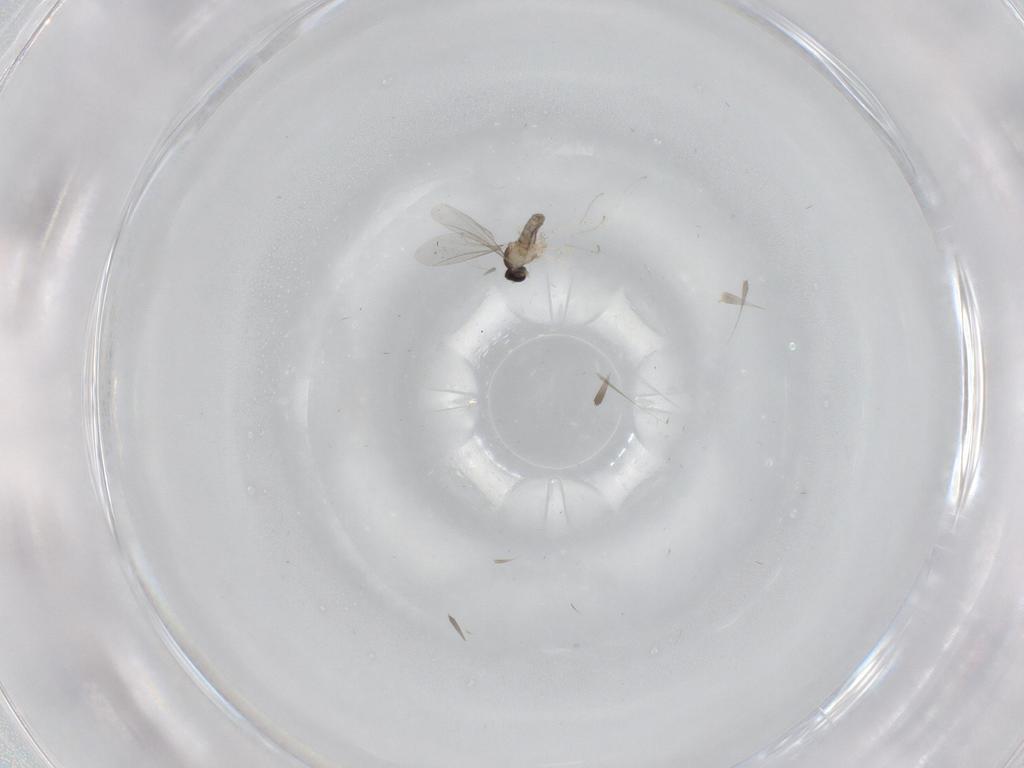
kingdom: Animalia
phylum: Arthropoda
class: Insecta
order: Diptera
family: Cecidomyiidae
